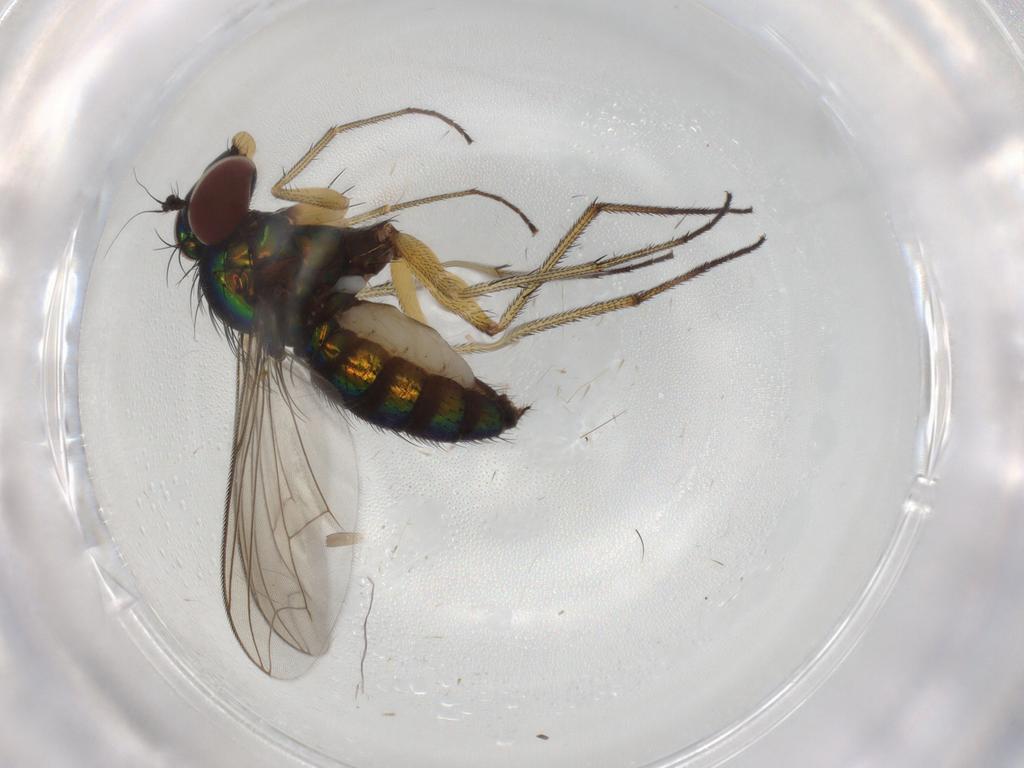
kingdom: Animalia
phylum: Arthropoda
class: Insecta
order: Diptera
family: Dolichopodidae
